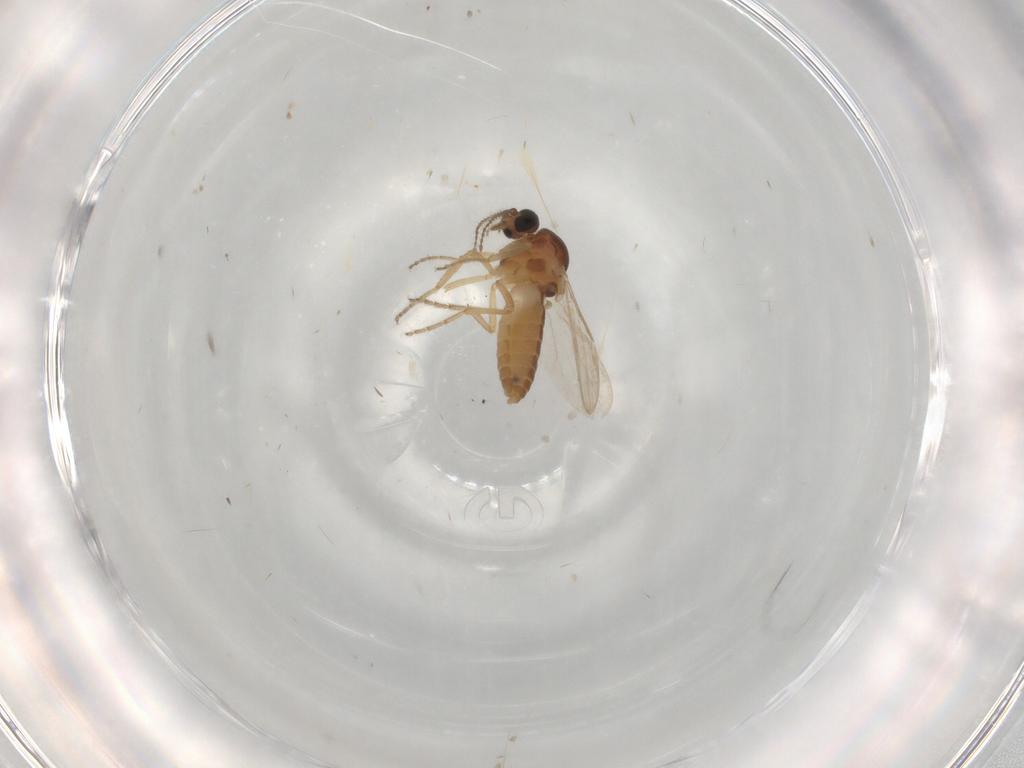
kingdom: Animalia
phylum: Arthropoda
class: Insecta
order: Diptera
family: Ceratopogonidae
